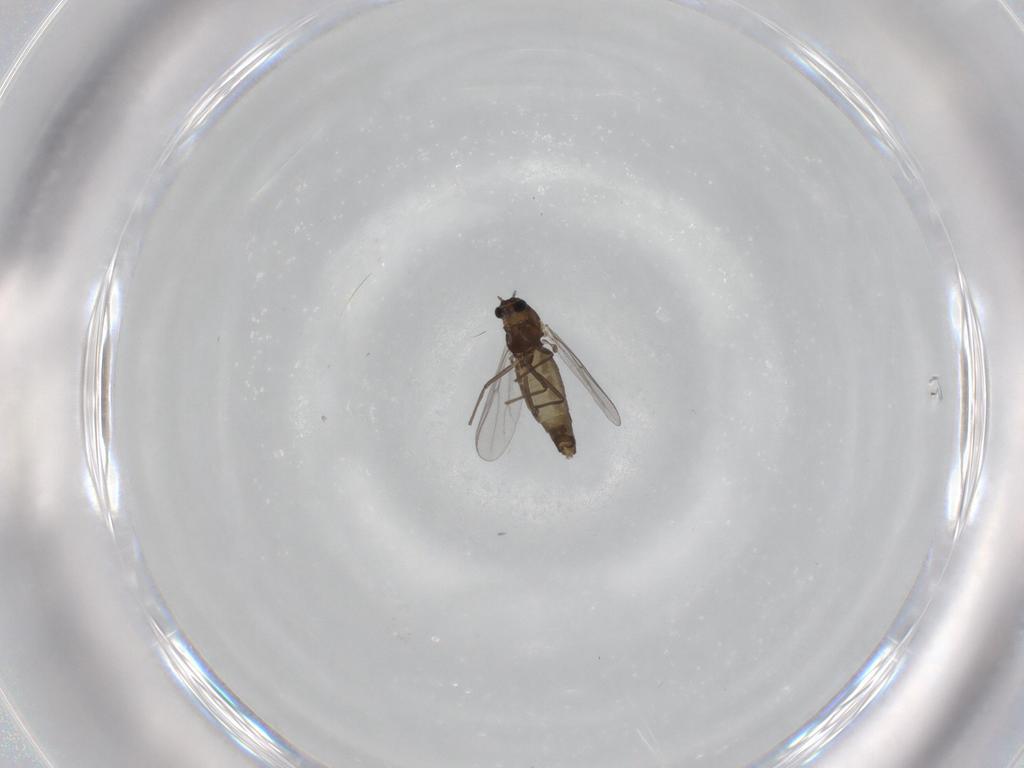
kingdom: Animalia
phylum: Arthropoda
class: Insecta
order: Diptera
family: Chironomidae
